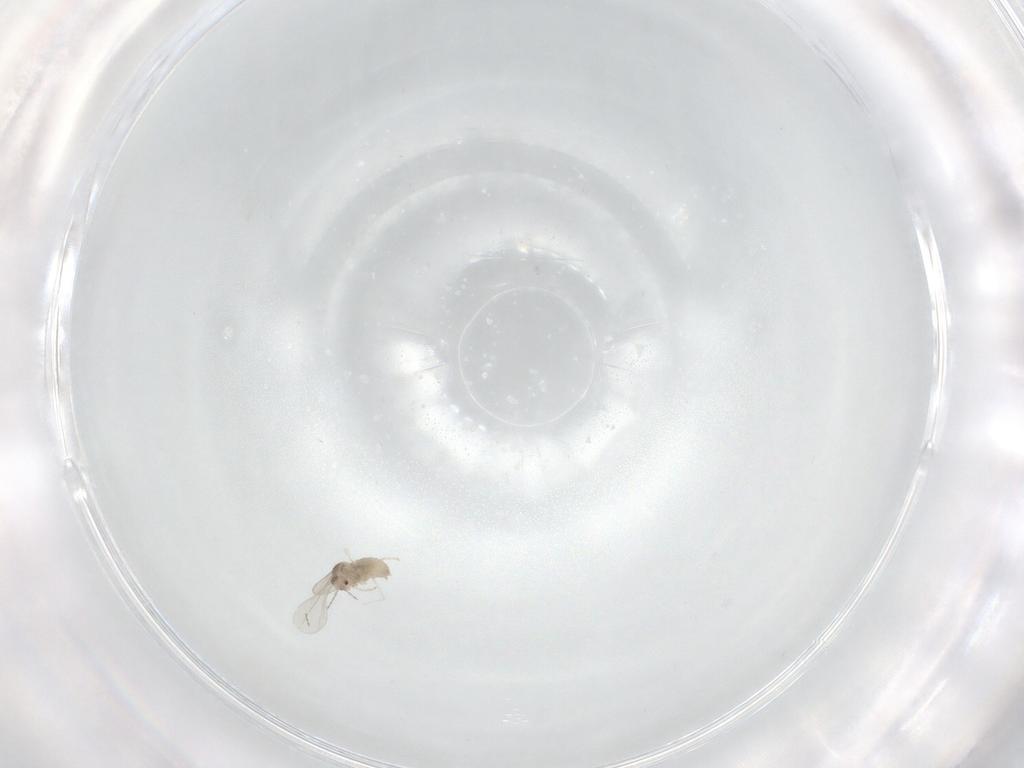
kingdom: Animalia
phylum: Arthropoda
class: Insecta
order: Diptera
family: Cecidomyiidae
